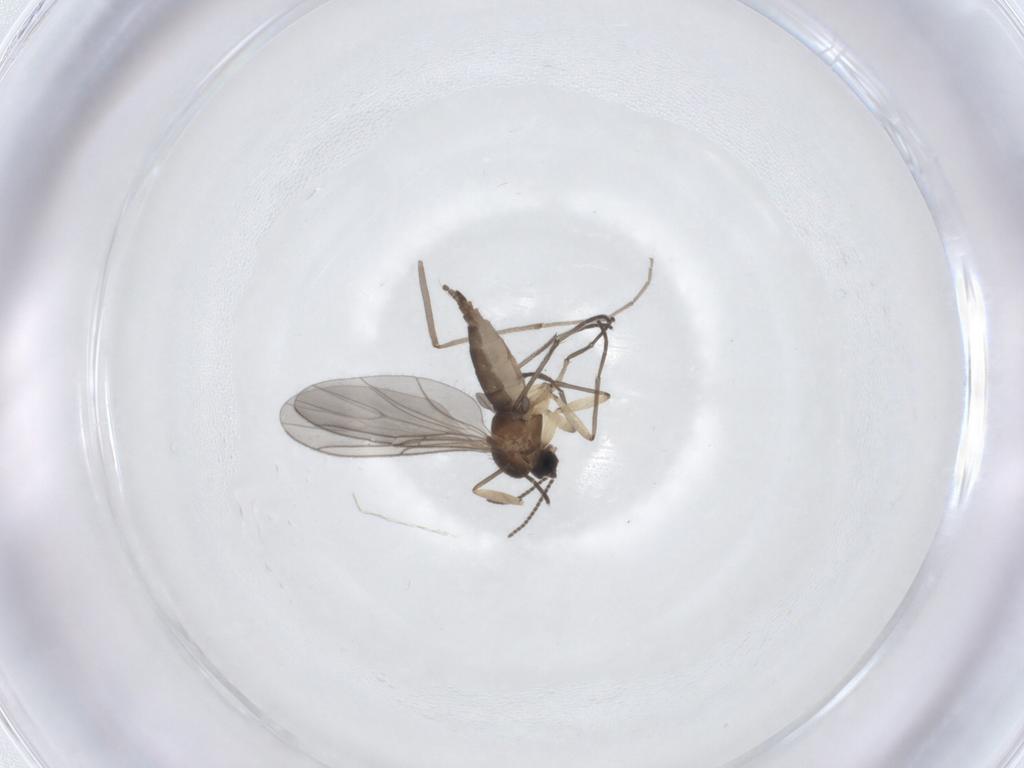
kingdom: Animalia
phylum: Arthropoda
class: Insecta
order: Diptera
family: Sciaridae
